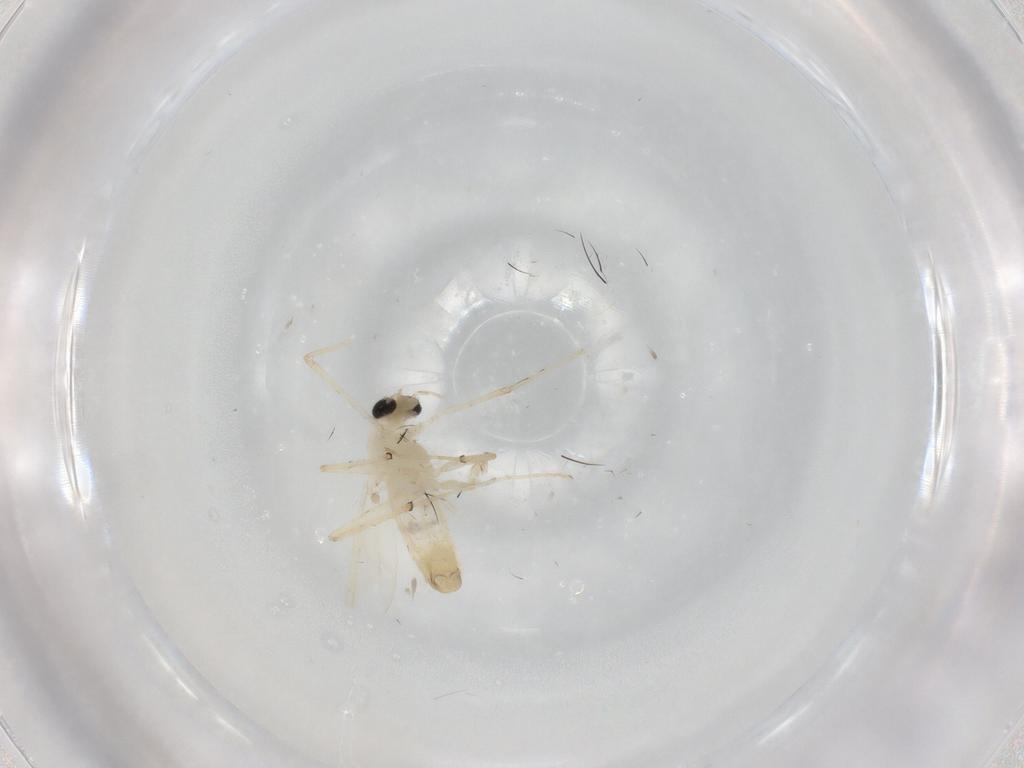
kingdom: Animalia
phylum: Arthropoda
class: Insecta
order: Diptera
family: Chironomidae
